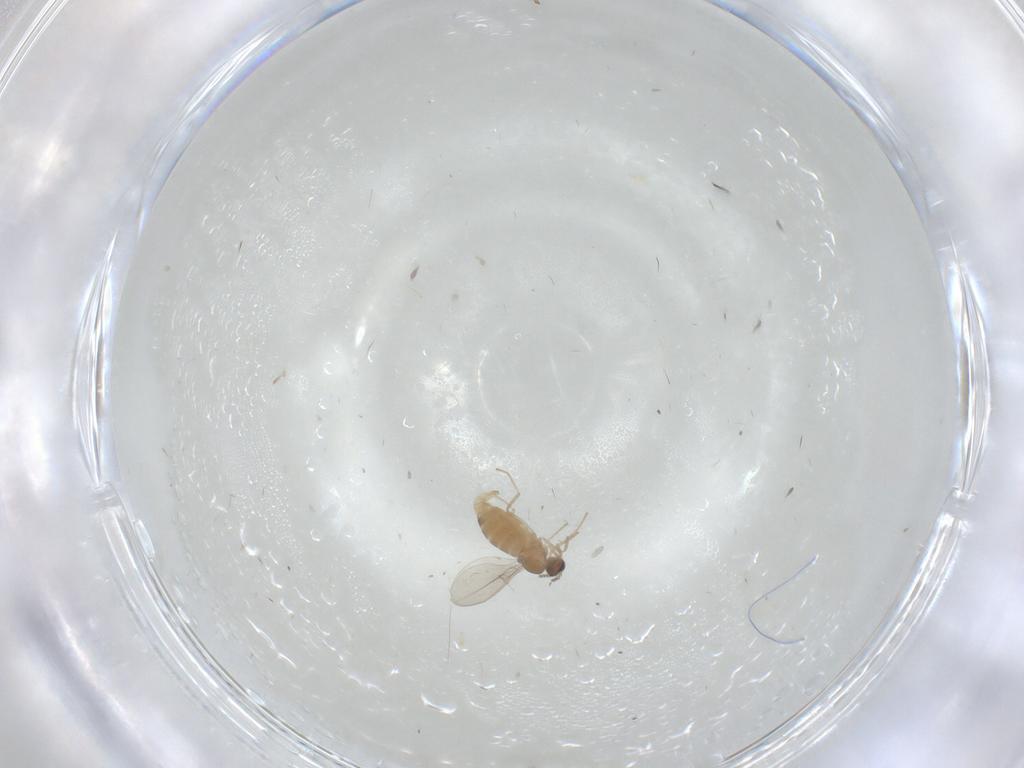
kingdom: Animalia
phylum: Arthropoda
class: Insecta
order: Diptera
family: Cecidomyiidae
